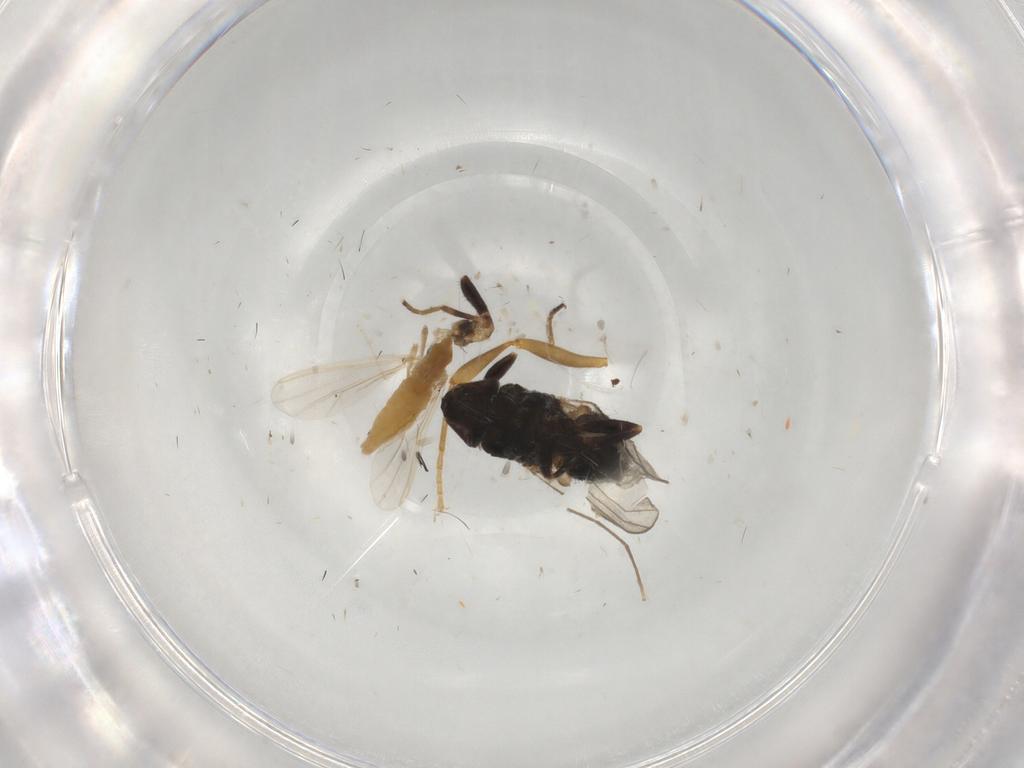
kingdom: Animalia
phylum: Arthropoda
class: Insecta
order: Diptera
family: Chironomidae
